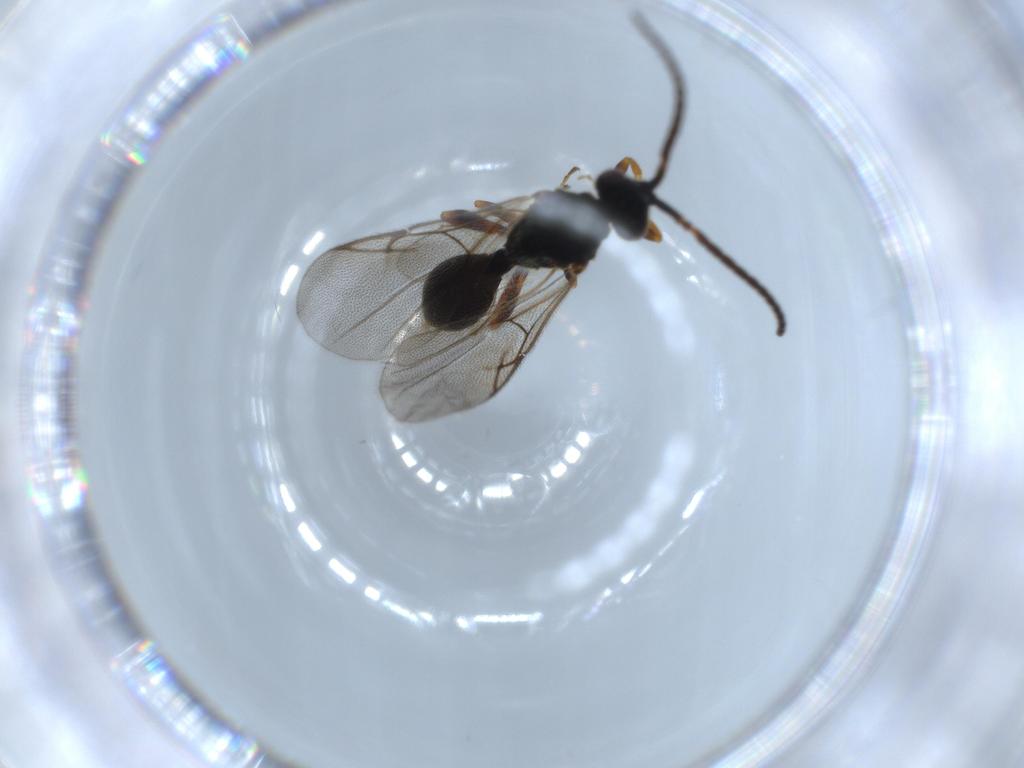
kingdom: Animalia
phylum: Arthropoda
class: Insecta
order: Hymenoptera
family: Diapriidae
